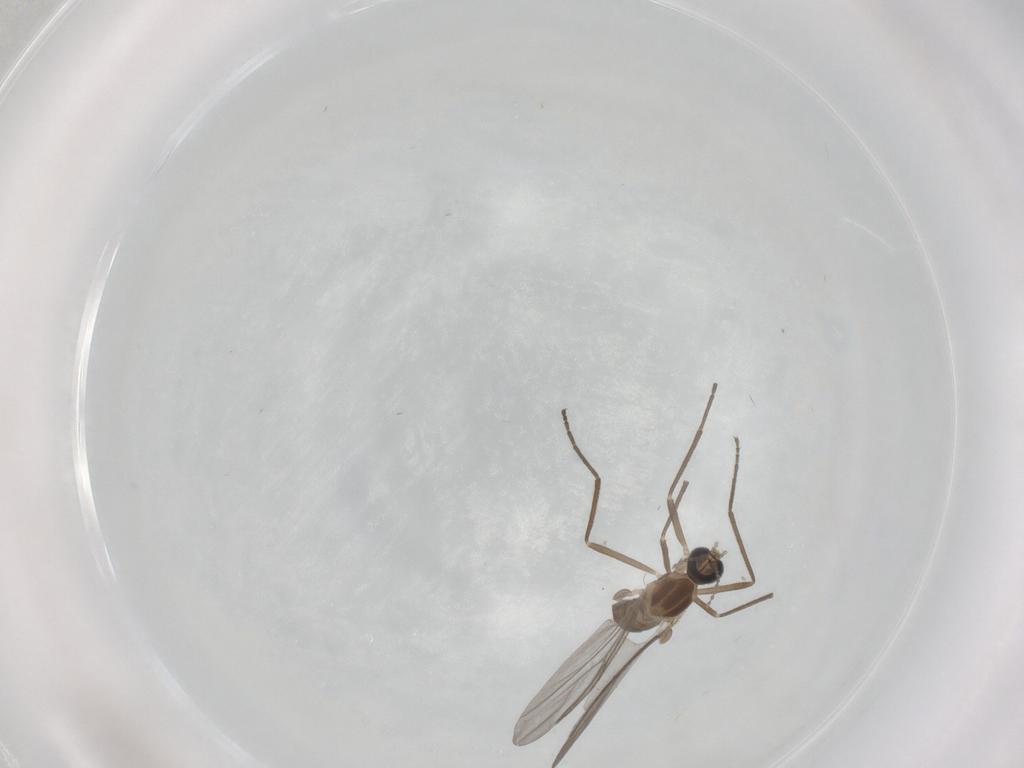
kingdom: Animalia
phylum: Arthropoda
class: Insecta
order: Diptera
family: Cecidomyiidae
